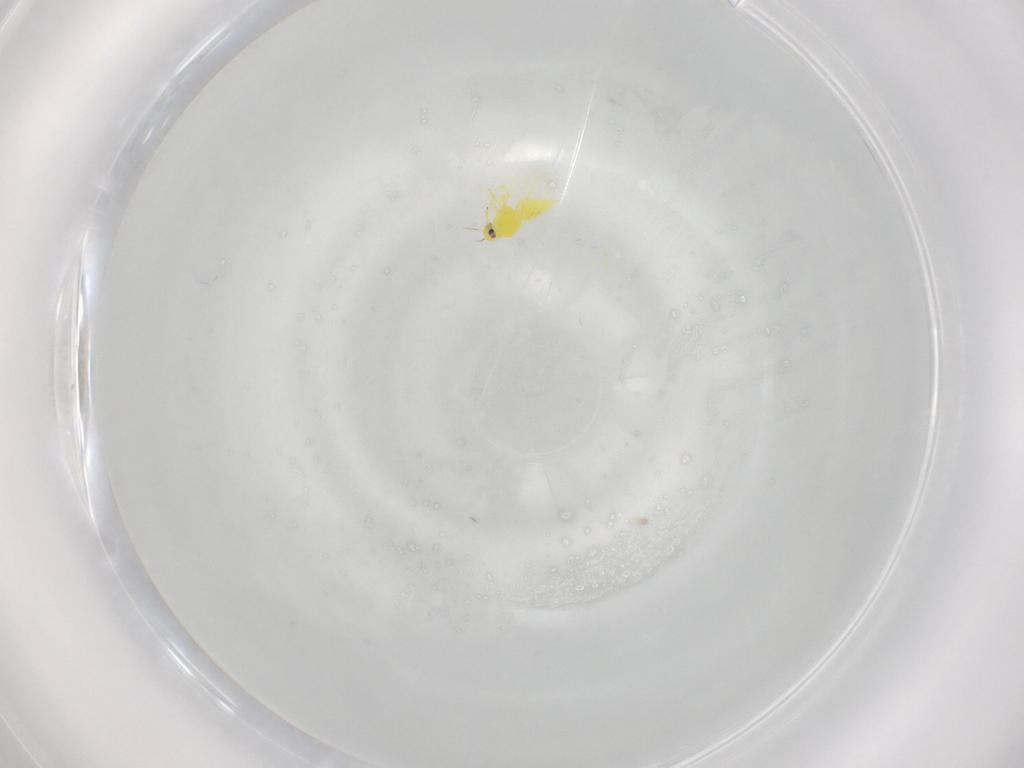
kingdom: Animalia
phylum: Arthropoda
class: Insecta
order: Hemiptera
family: Aleyrodidae
